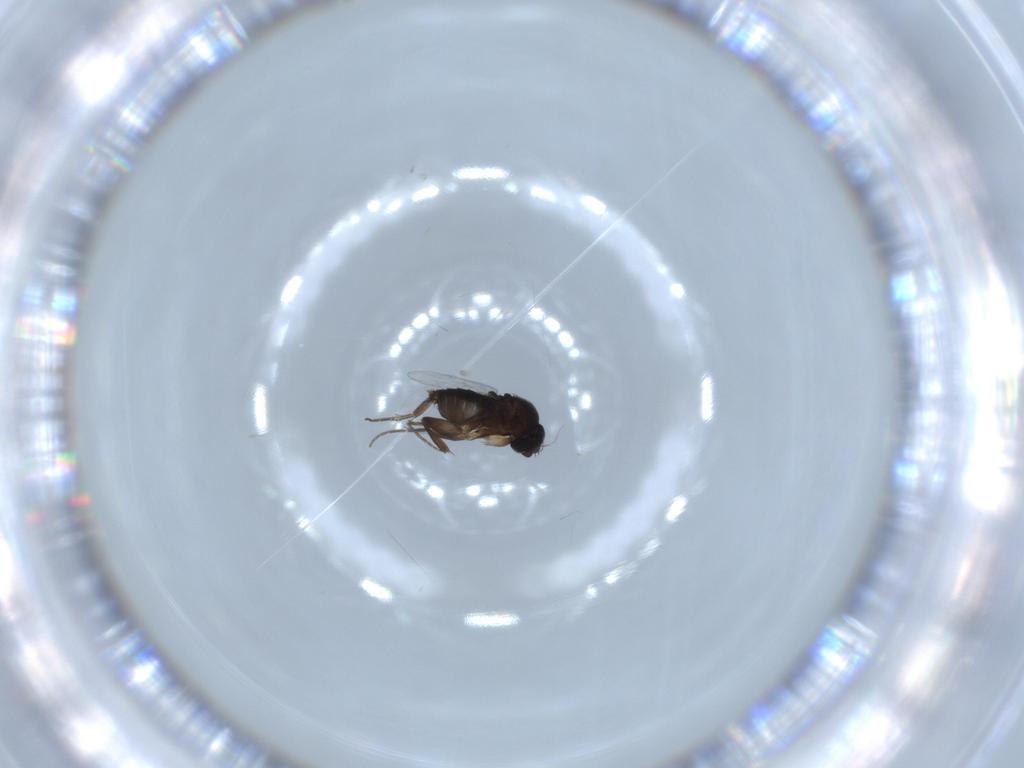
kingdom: Animalia
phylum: Arthropoda
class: Insecta
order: Diptera
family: Phoridae
